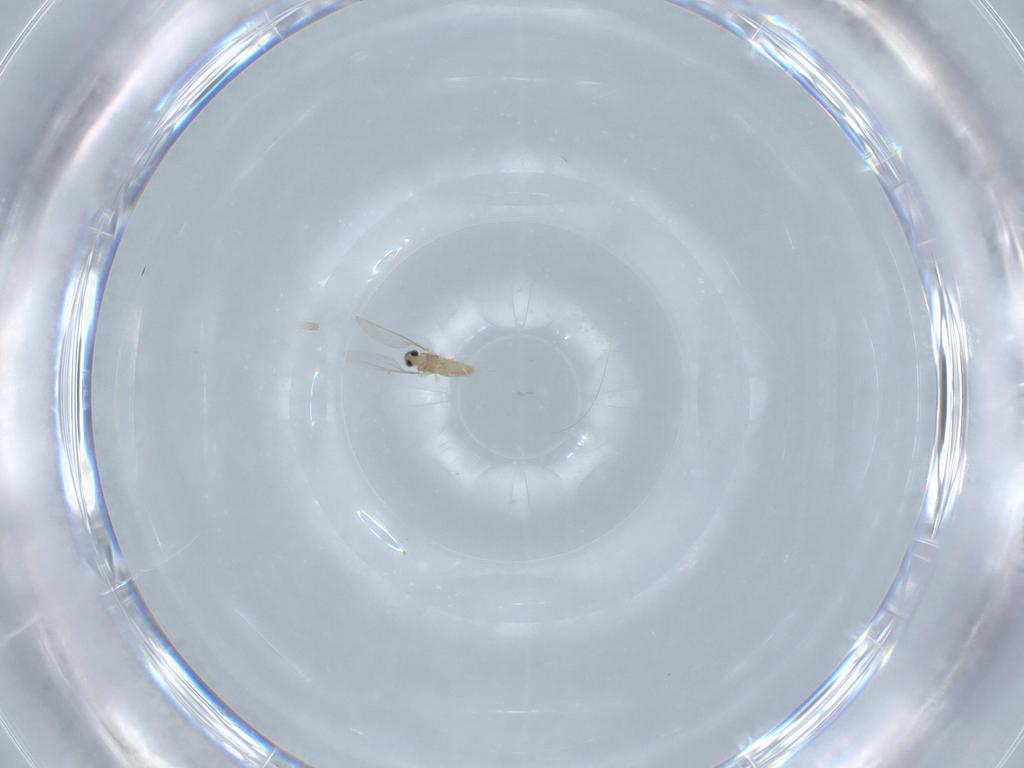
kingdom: Animalia
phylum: Arthropoda
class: Insecta
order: Diptera
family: Cecidomyiidae
